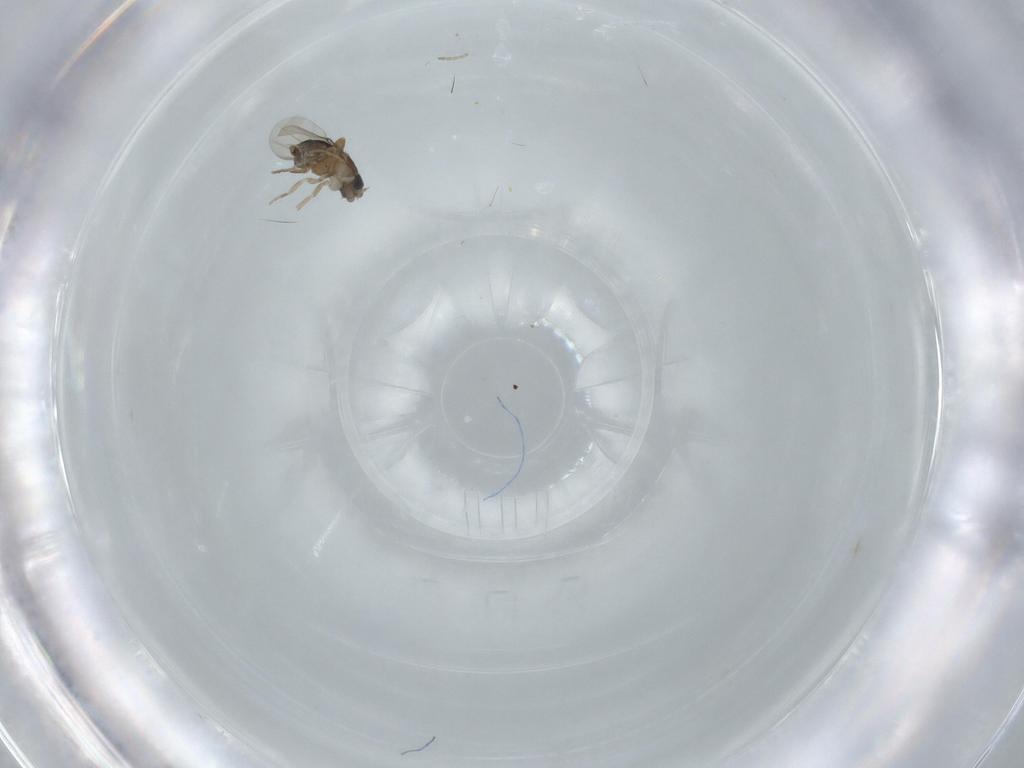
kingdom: Animalia
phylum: Arthropoda
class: Insecta
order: Diptera
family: Phoridae
